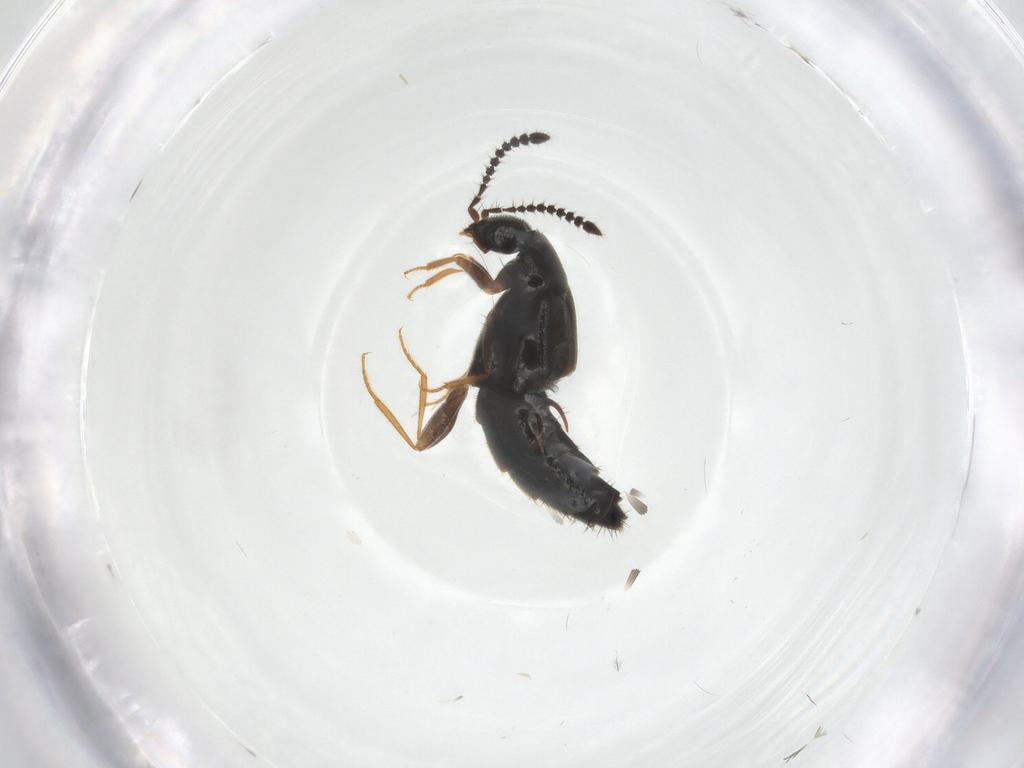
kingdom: Animalia
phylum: Arthropoda
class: Insecta
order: Coleoptera
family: Staphylinidae
